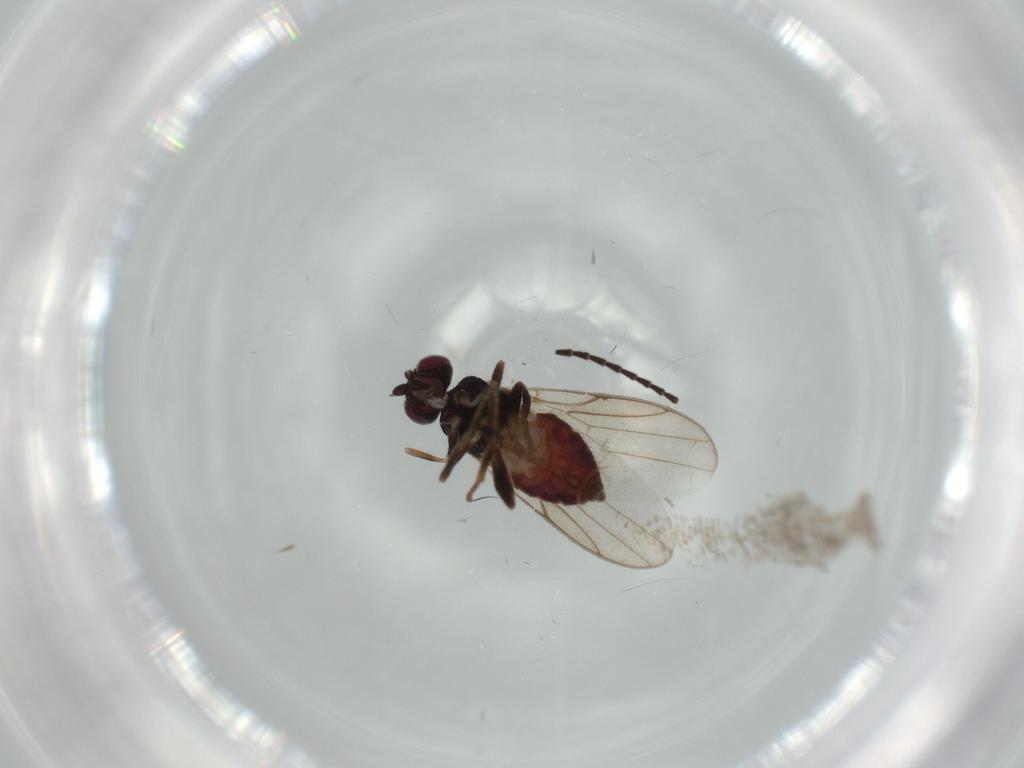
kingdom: Animalia
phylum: Arthropoda
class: Insecta
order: Diptera
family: Chloropidae
